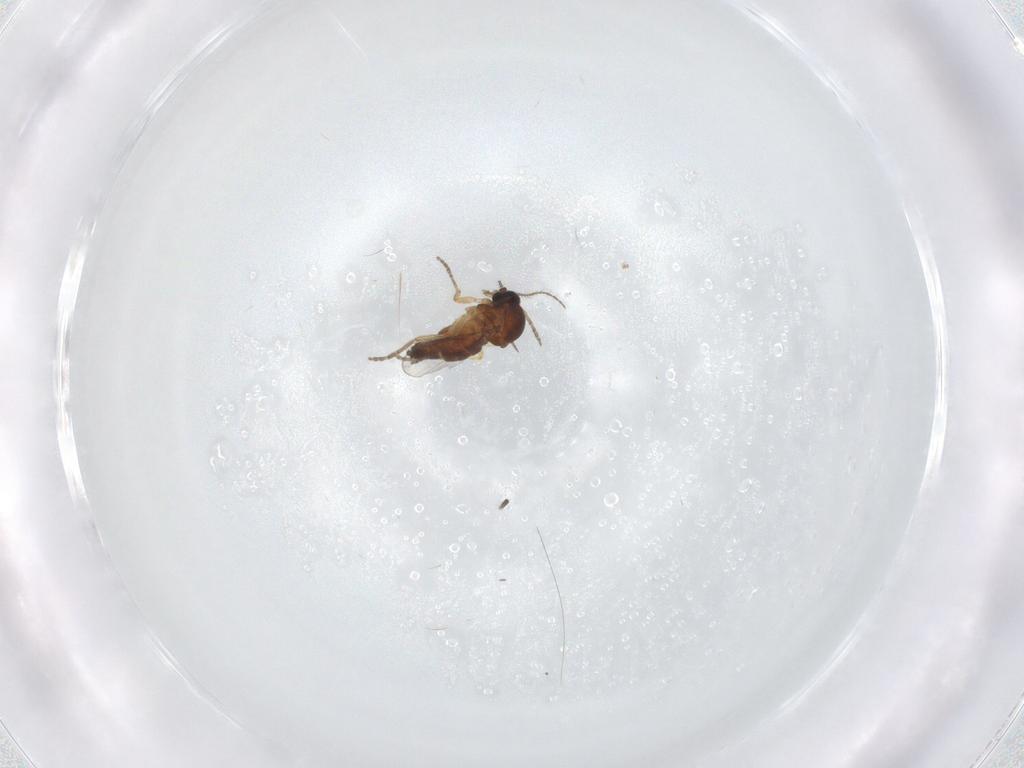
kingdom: Animalia
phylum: Arthropoda
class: Insecta
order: Diptera
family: Ceratopogonidae
